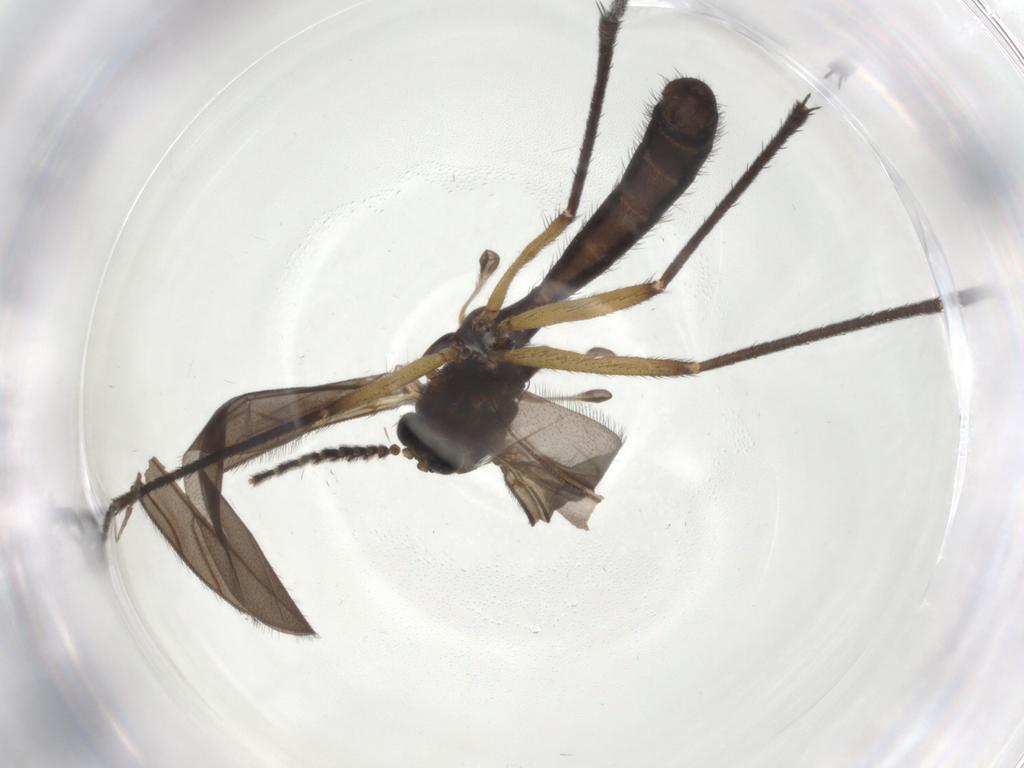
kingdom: Animalia
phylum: Arthropoda
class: Insecta
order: Diptera
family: Ditomyiidae
